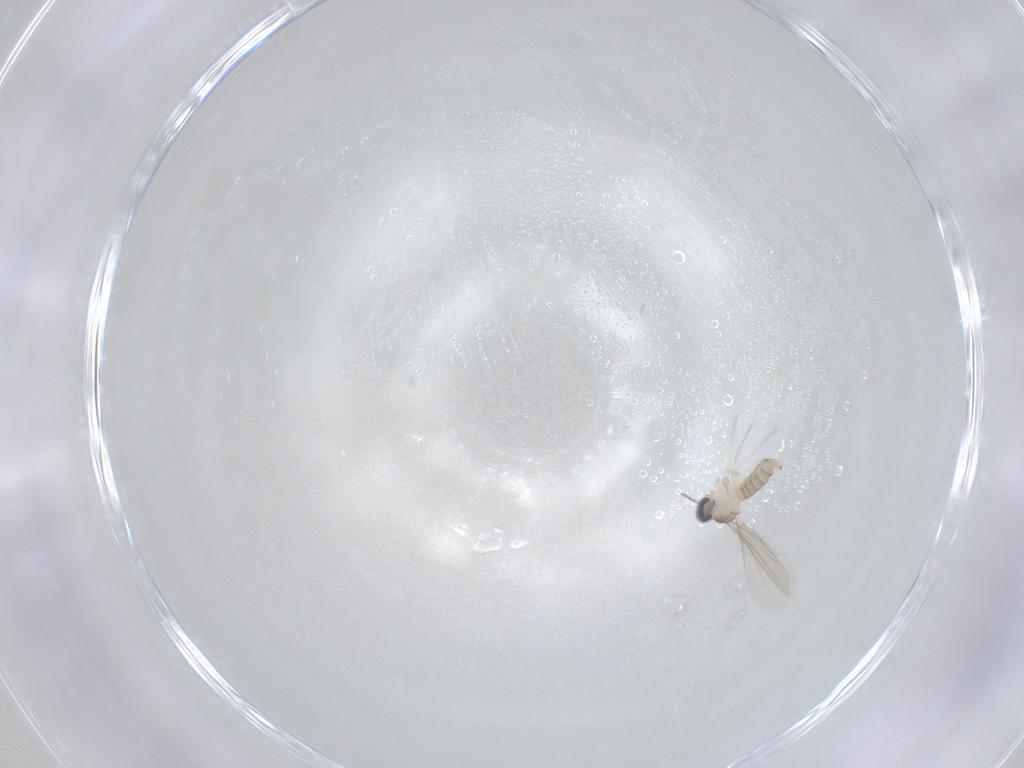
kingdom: Animalia
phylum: Arthropoda
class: Insecta
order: Diptera
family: Cecidomyiidae
